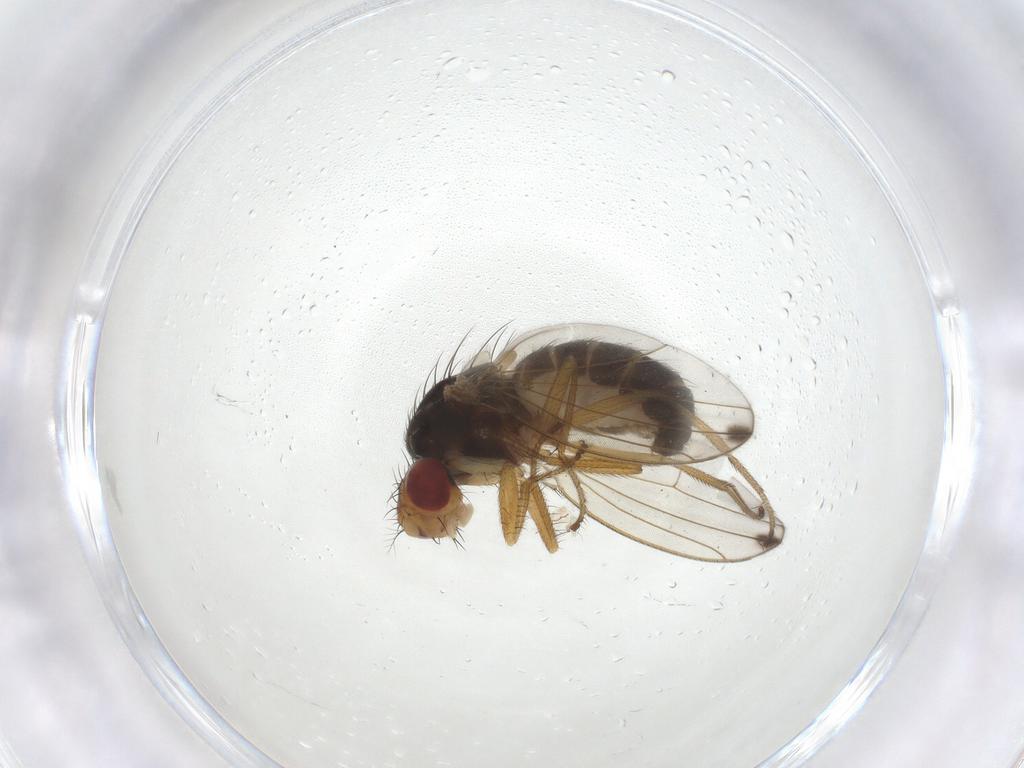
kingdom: Animalia
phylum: Arthropoda
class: Insecta
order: Diptera
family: Drosophilidae
